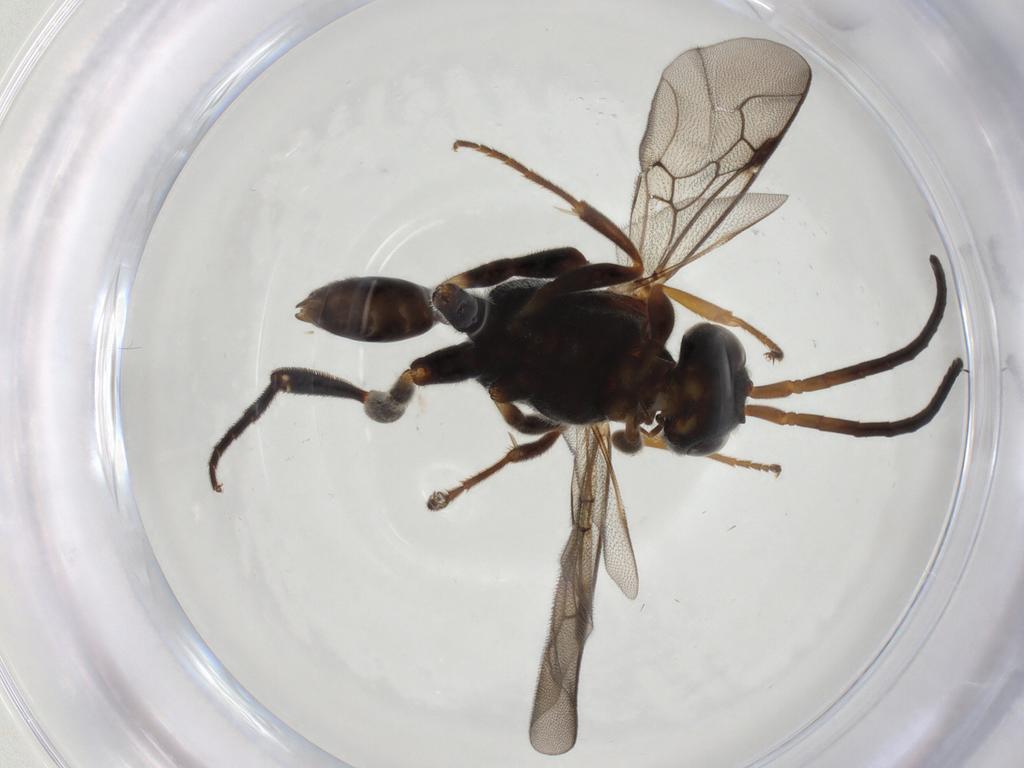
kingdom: Animalia
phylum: Arthropoda
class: Insecta
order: Hymenoptera
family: Evaniidae
